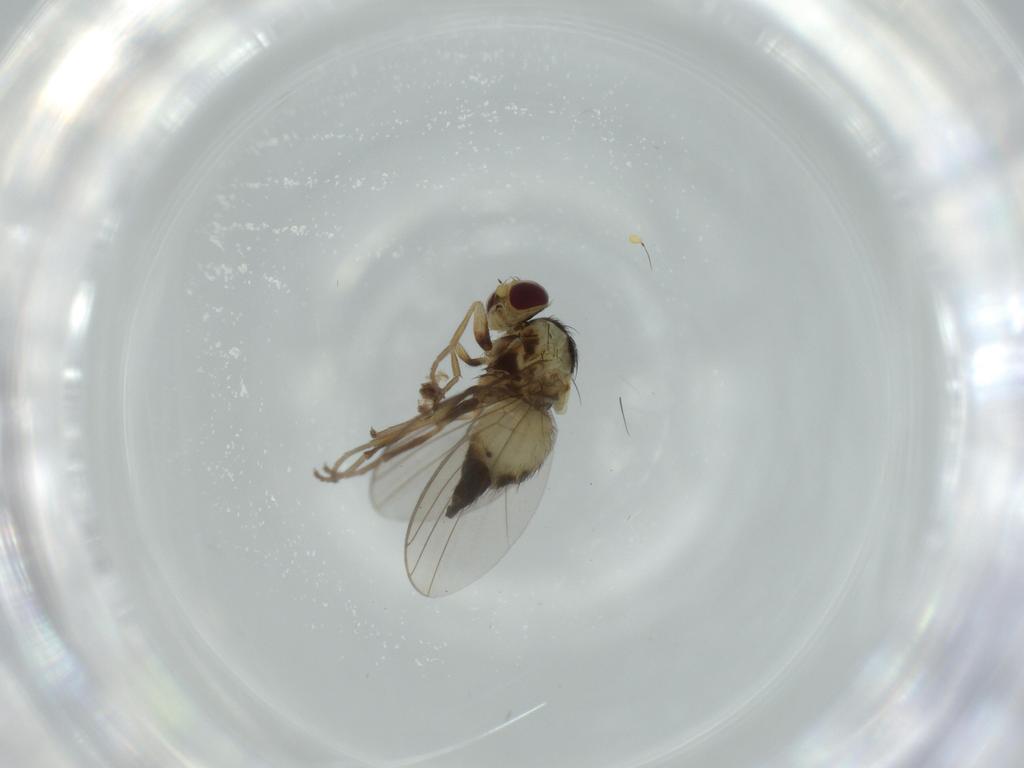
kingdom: Animalia
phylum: Arthropoda
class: Insecta
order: Diptera
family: Agromyzidae
